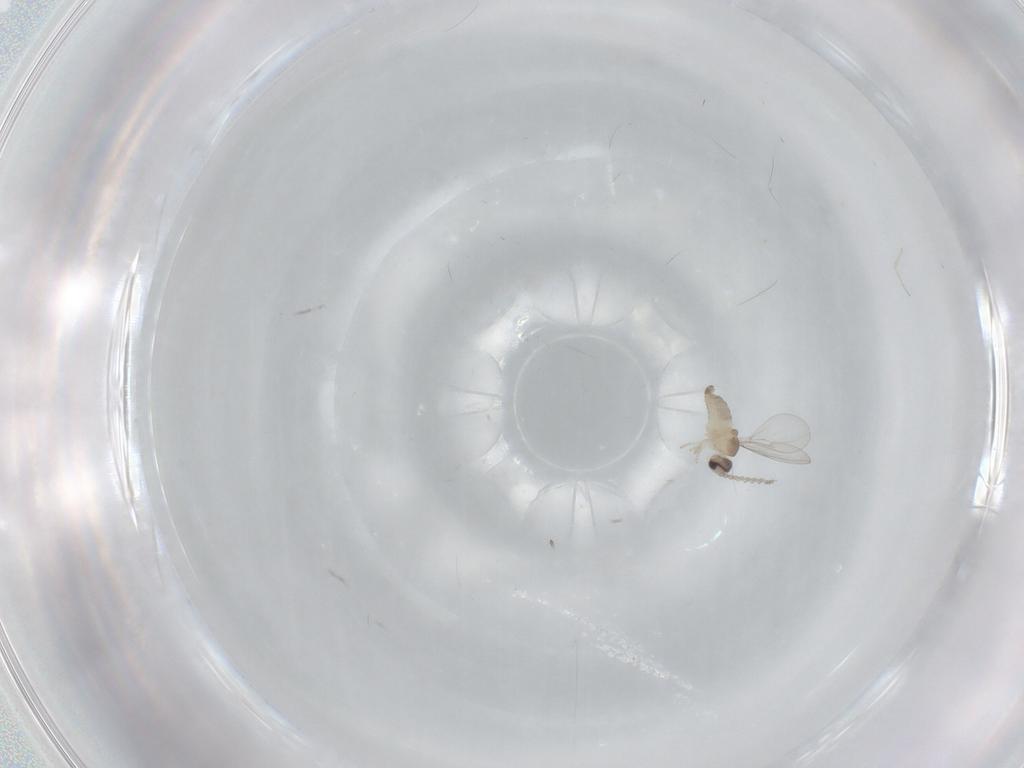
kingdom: Animalia
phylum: Arthropoda
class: Insecta
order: Diptera
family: Cecidomyiidae
